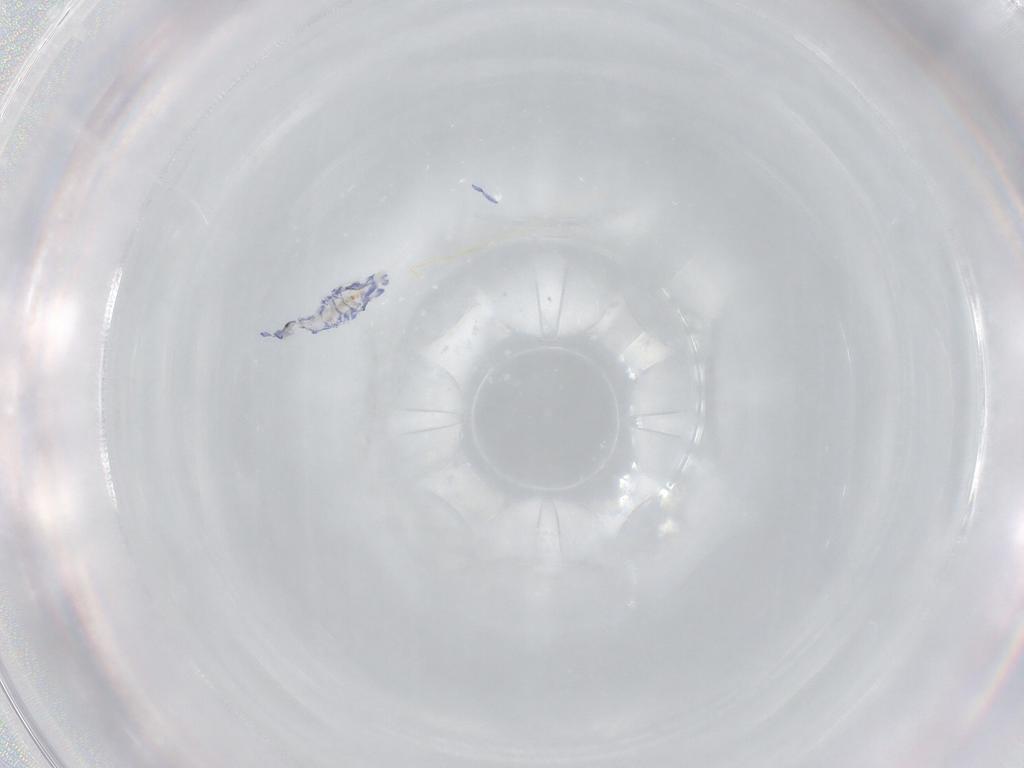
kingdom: Animalia
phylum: Arthropoda
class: Collembola
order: Entomobryomorpha
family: Entomobryidae
